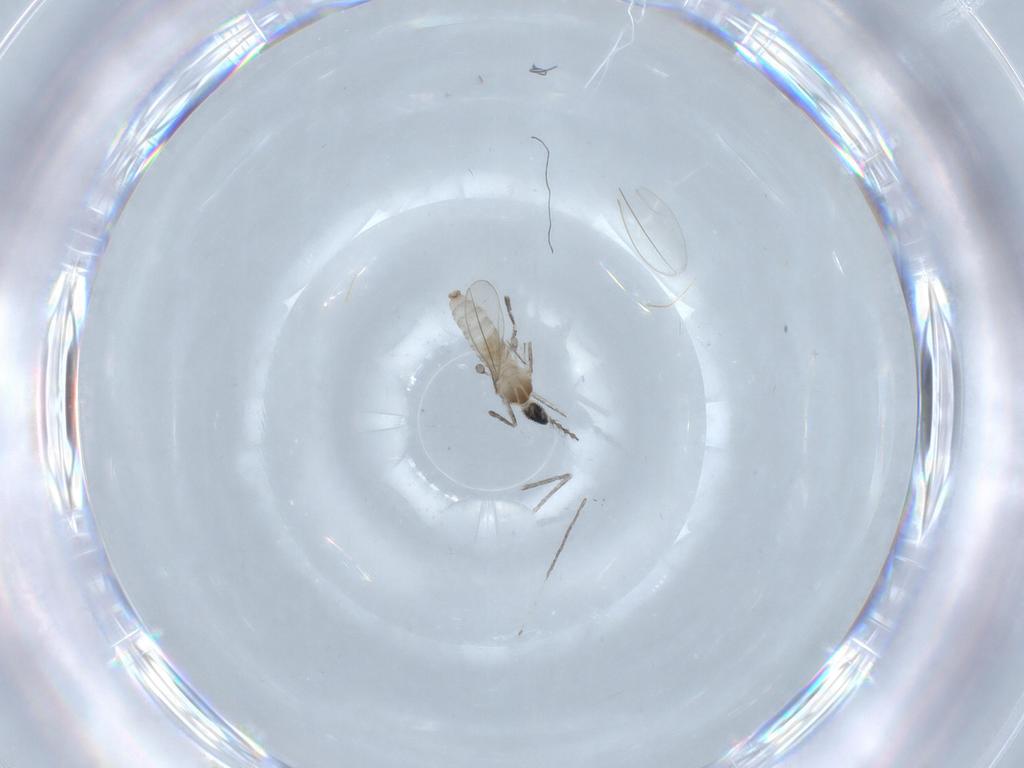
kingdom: Animalia
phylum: Arthropoda
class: Insecta
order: Diptera
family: Cecidomyiidae
